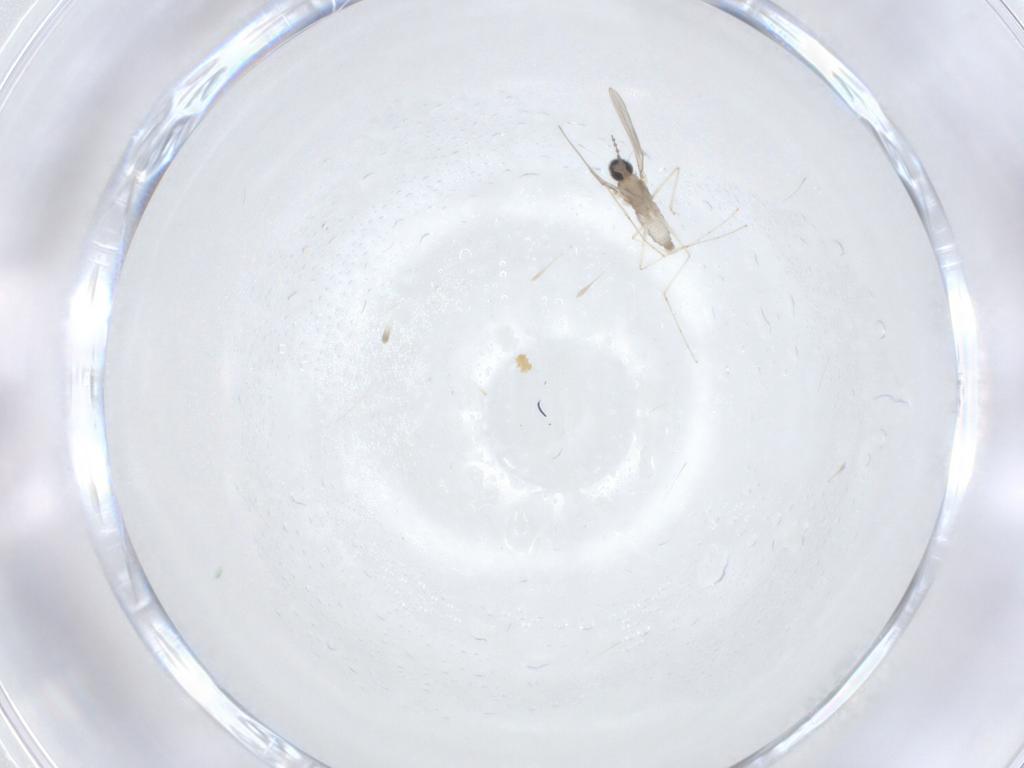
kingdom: Animalia
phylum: Arthropoda
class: Insecta
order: Diptera
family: Cecidomyiidae
